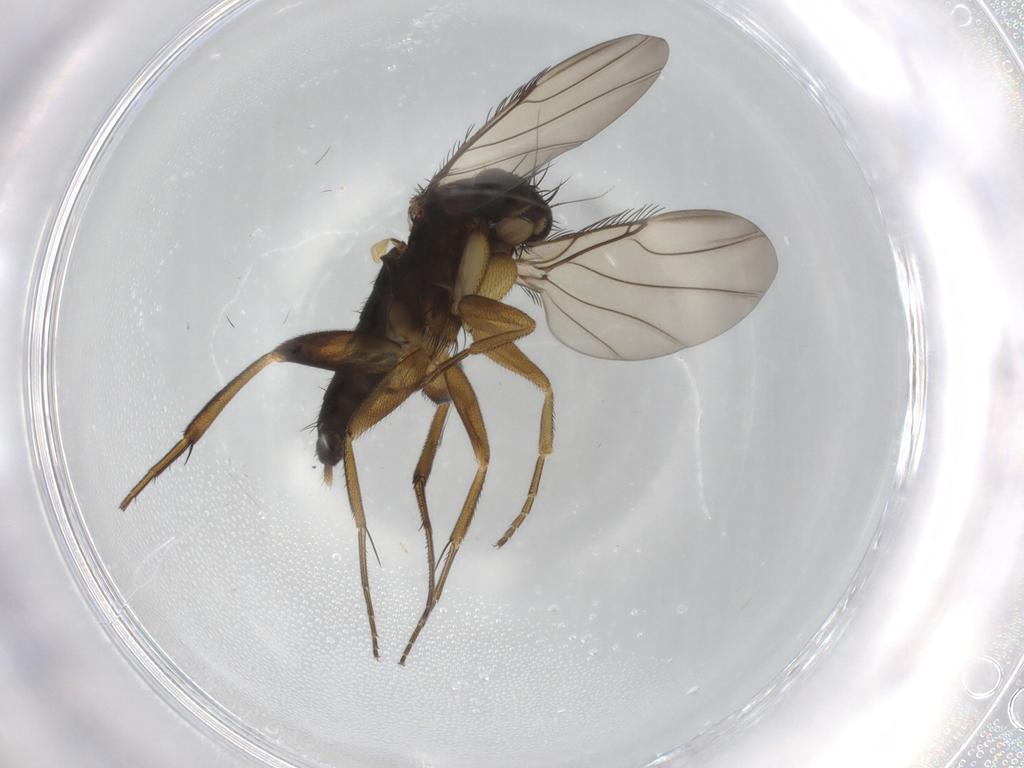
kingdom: Animalia
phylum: Arthropoda
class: Insecta
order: Diptera
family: Phoridae
